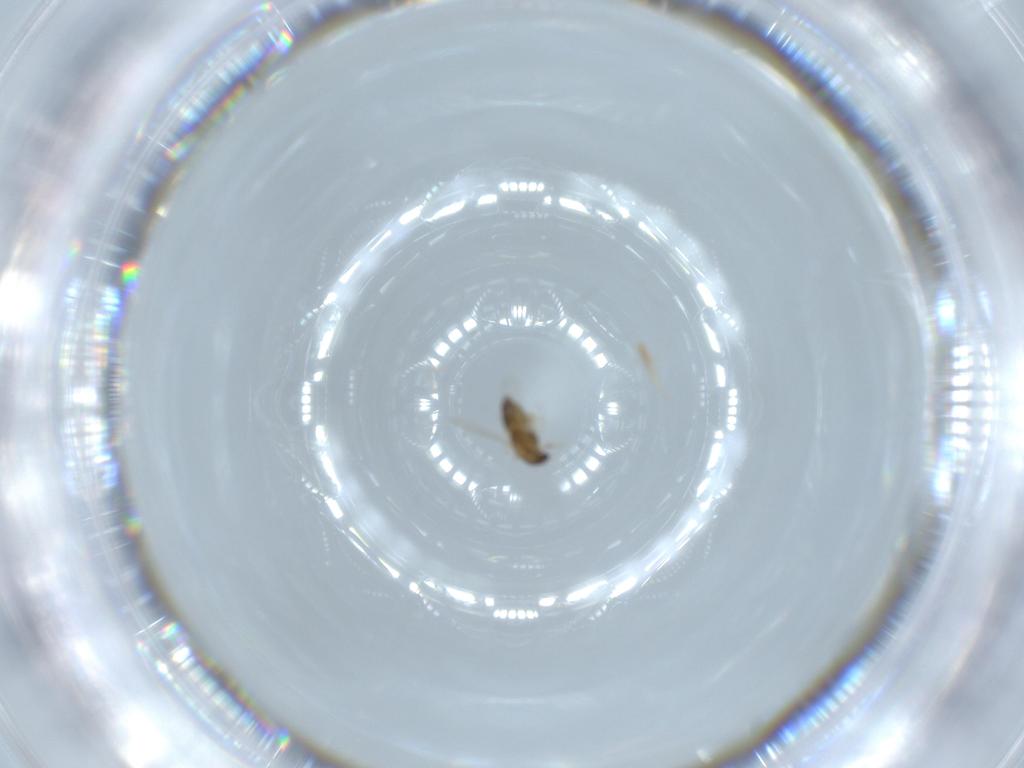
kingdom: Animalia
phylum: Arthropoda
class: Insecta
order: Diptera
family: Chironomidae
